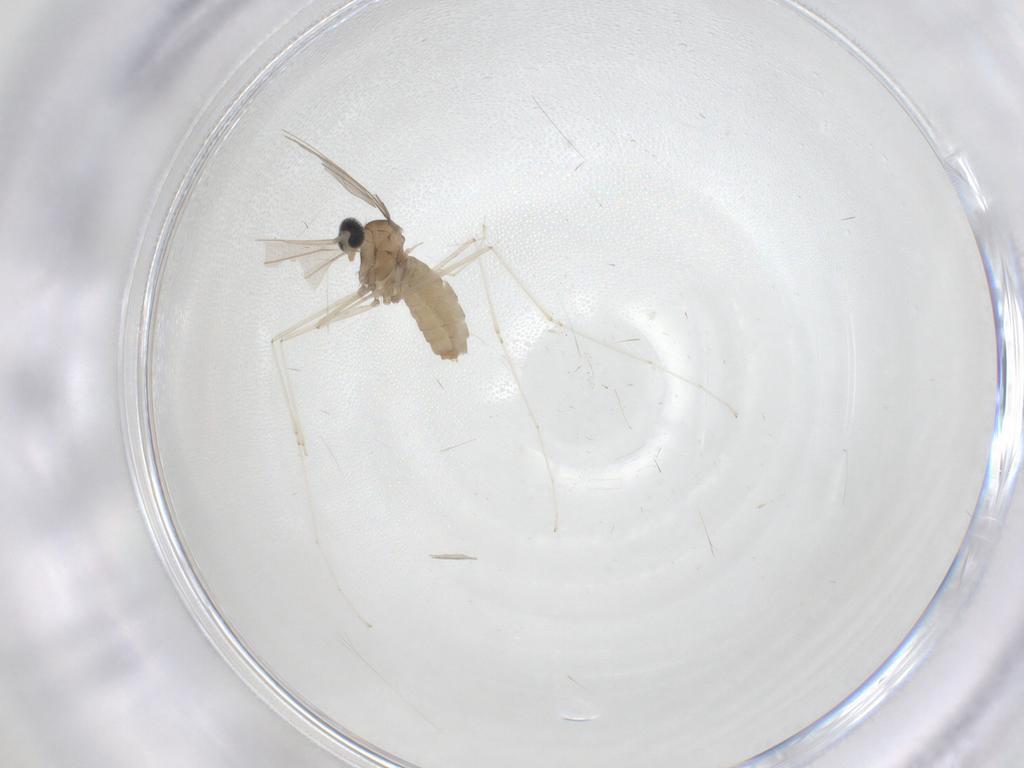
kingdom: Animalia
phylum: Arthropoda
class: Insecta
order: Diptera
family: Cecidomyiidae
